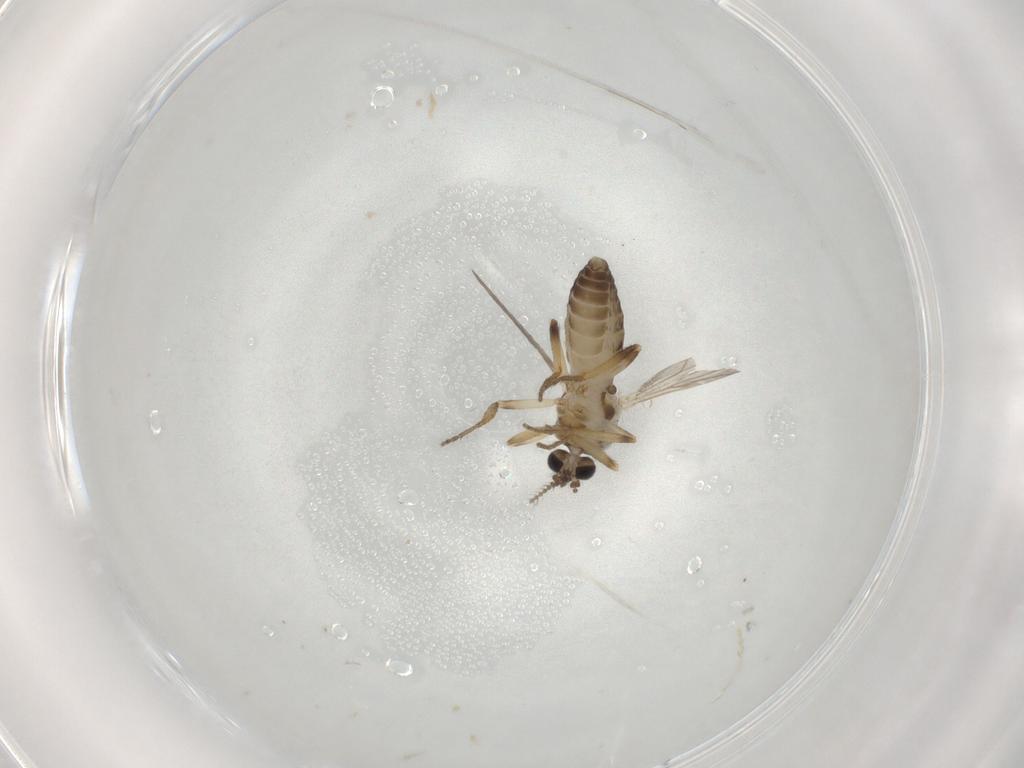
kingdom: Animalia
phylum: Arthropoda
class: Insecta
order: Diptera
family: Ceratopogonidae
